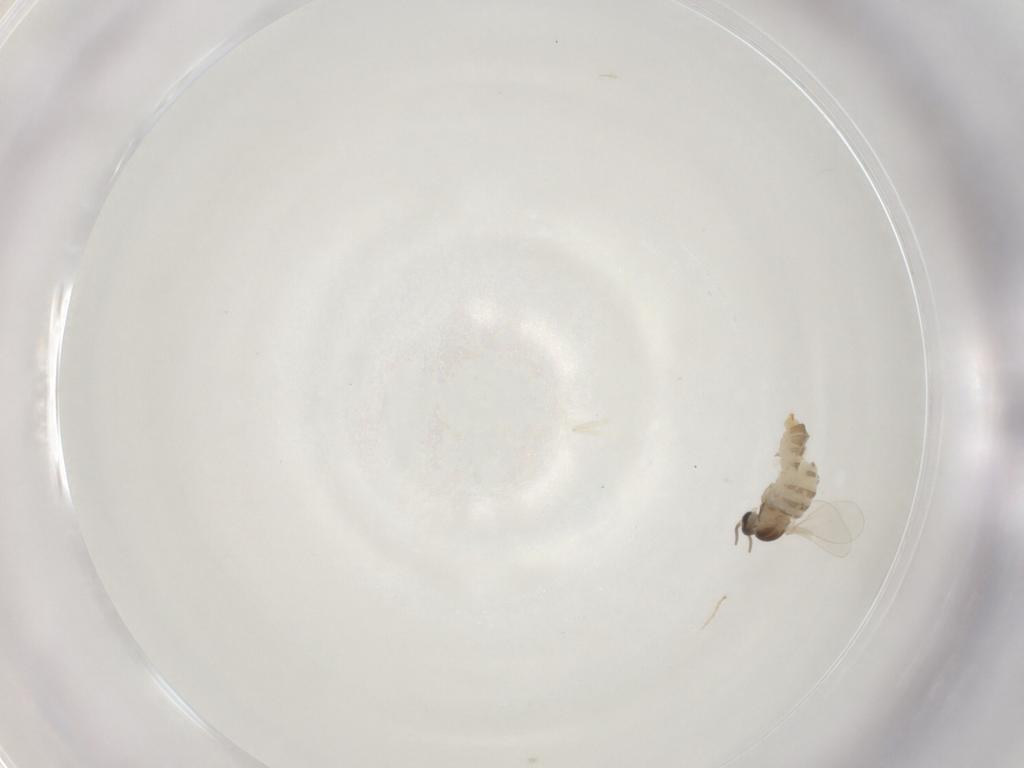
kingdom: Animalia
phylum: Arthropoda
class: Insecta
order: Diptera
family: Cecidomyiidae
